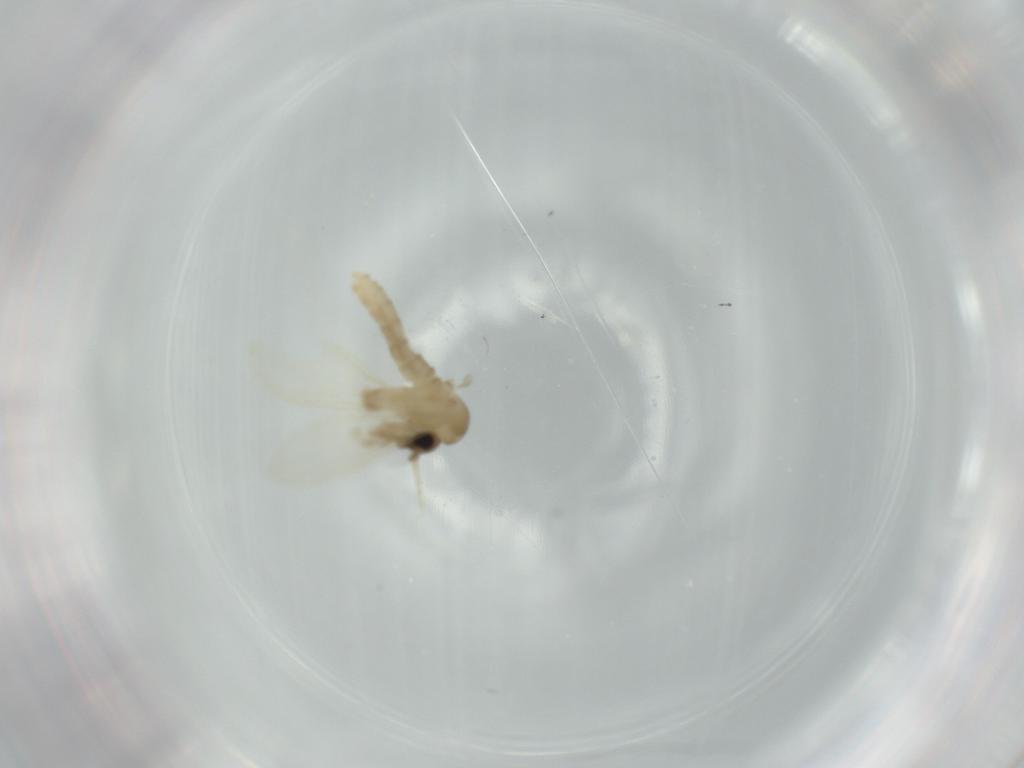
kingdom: Animalia
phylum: Arthropoda
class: Insecta
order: Diptera
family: Psychodidae
